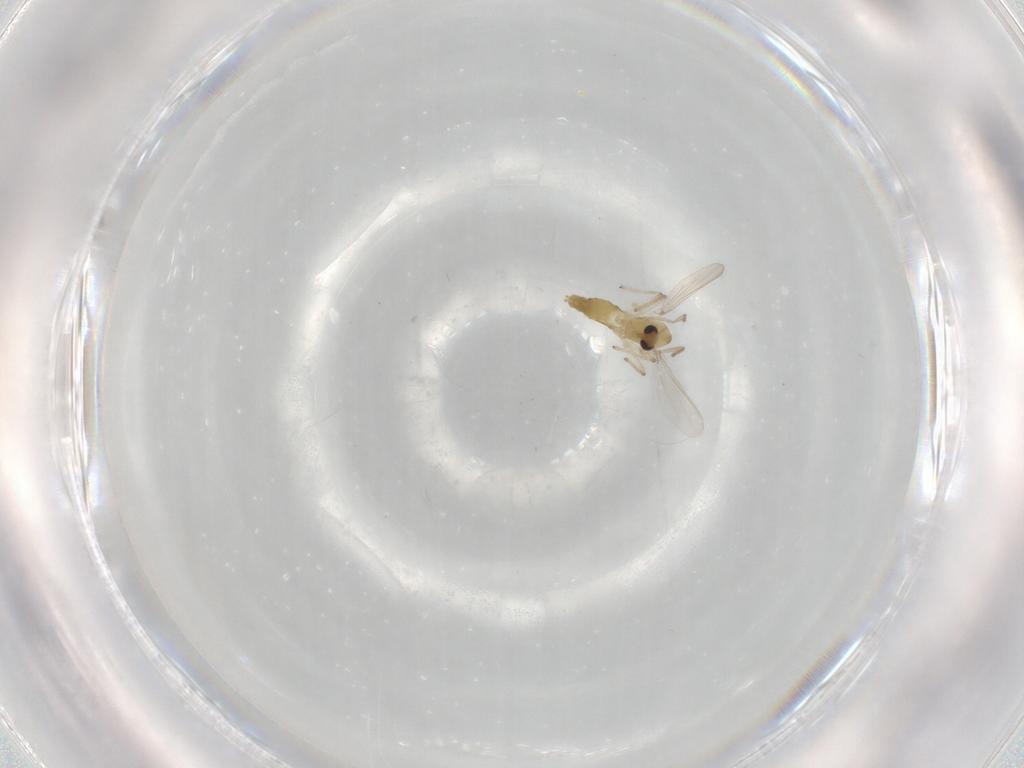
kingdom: Animalia
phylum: Arthropoda
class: Insecta
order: Diptera
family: Chironomidae
